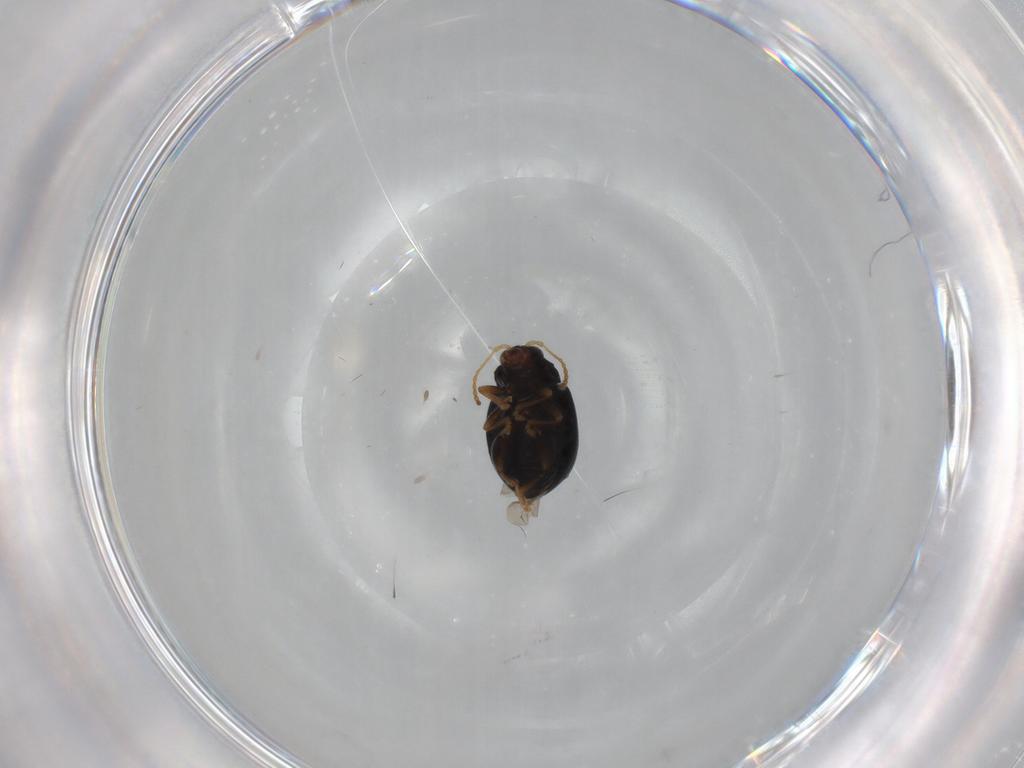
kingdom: Animalia
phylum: Arthropoda
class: Insecta
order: Coleoptera
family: Chrysomelidae
